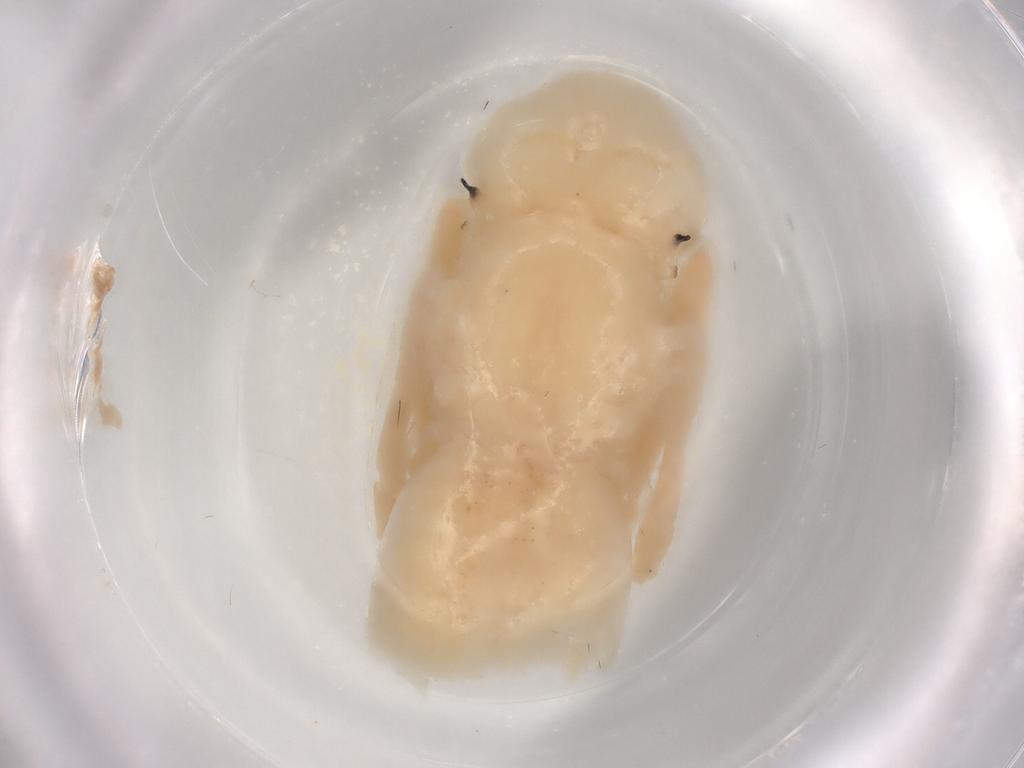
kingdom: Animalia
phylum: Arthropoda
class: Insecta
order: Diptera
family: Muscidae
